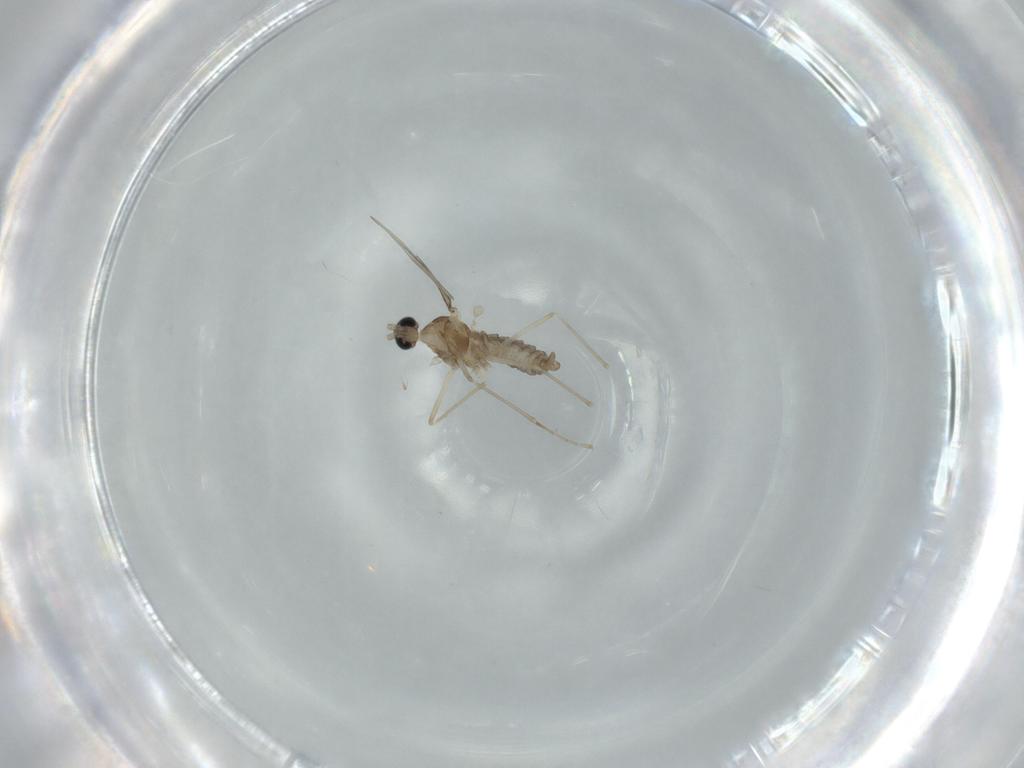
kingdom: Animalia
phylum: Arthropoda
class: Insecta
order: Diptera
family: Cecidomyiidae
